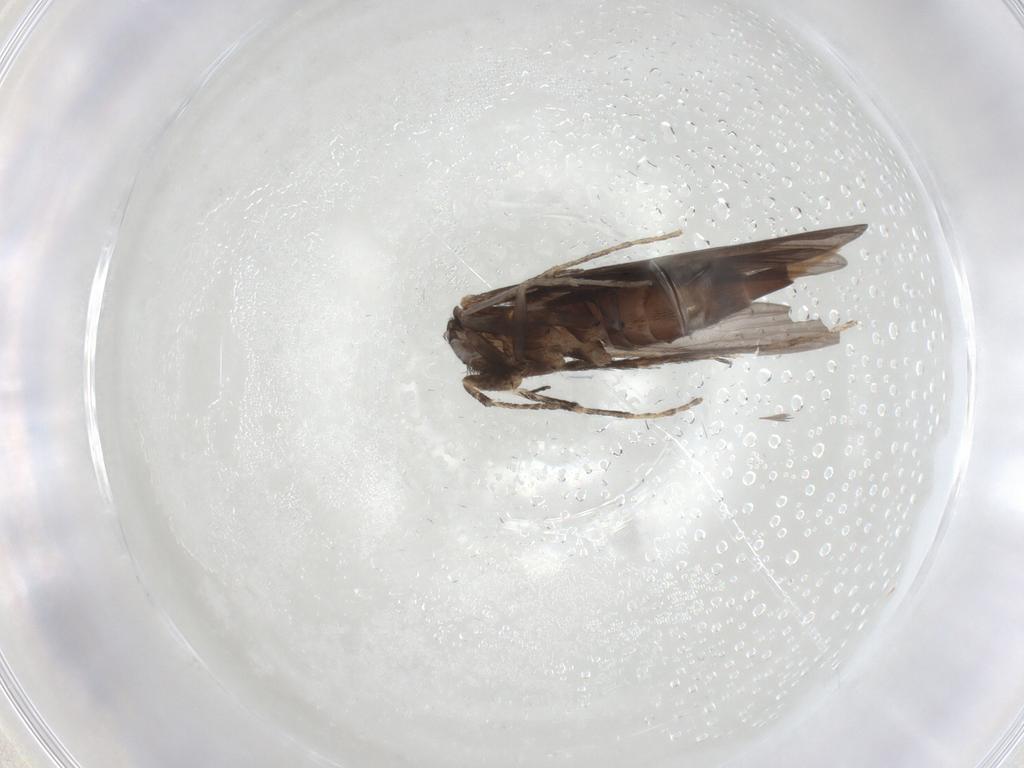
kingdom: Animalia
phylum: Arthropoda
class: Insecta
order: Trichoptera
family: Xiphocentronidae
